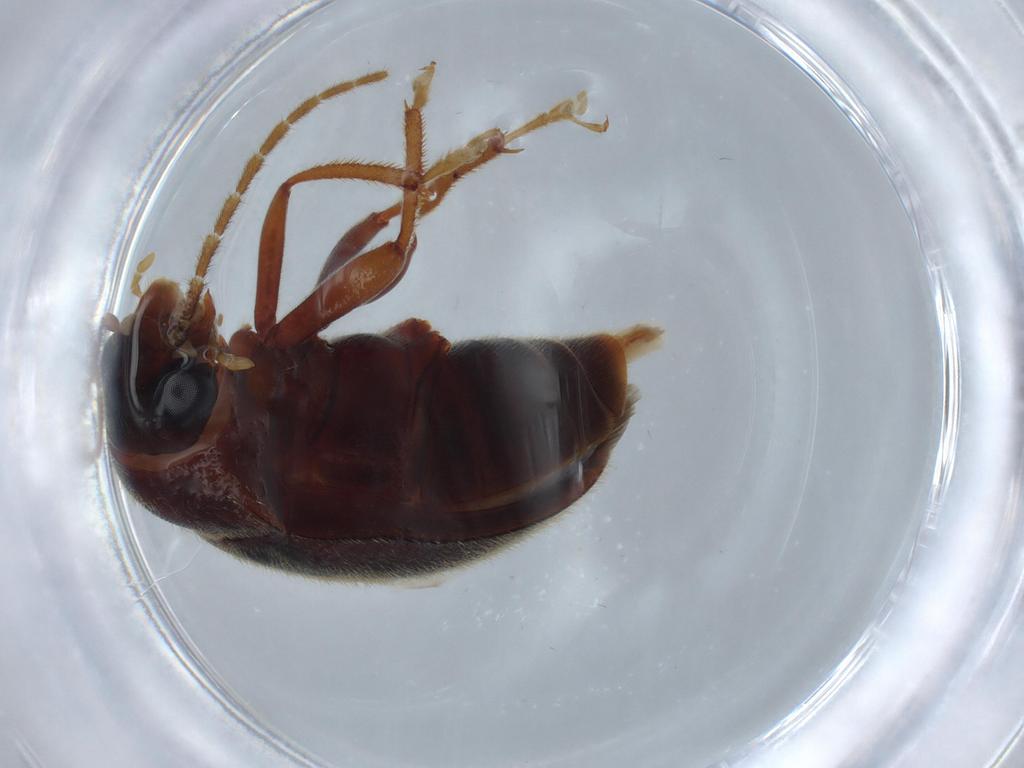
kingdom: Animalia
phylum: Arthropoda
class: Insecta
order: Coleoptera
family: Ptilodactylidae
